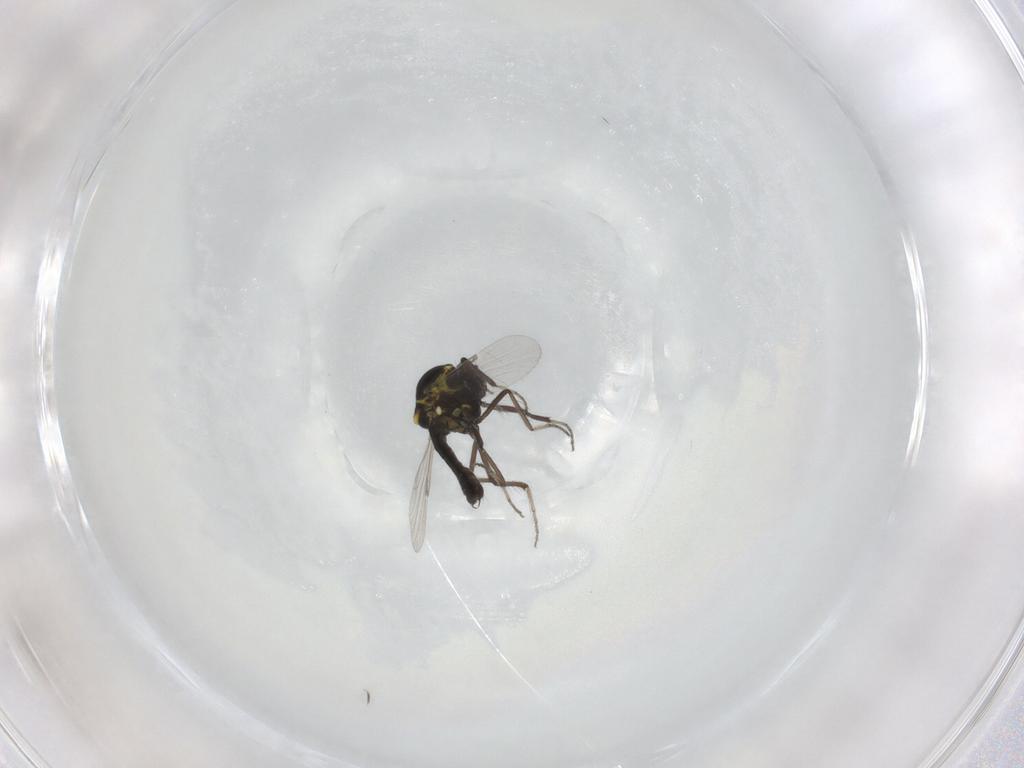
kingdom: Animalia
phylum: Arthropoda
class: Insecta
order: Diptera
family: Ceratopogonidae
